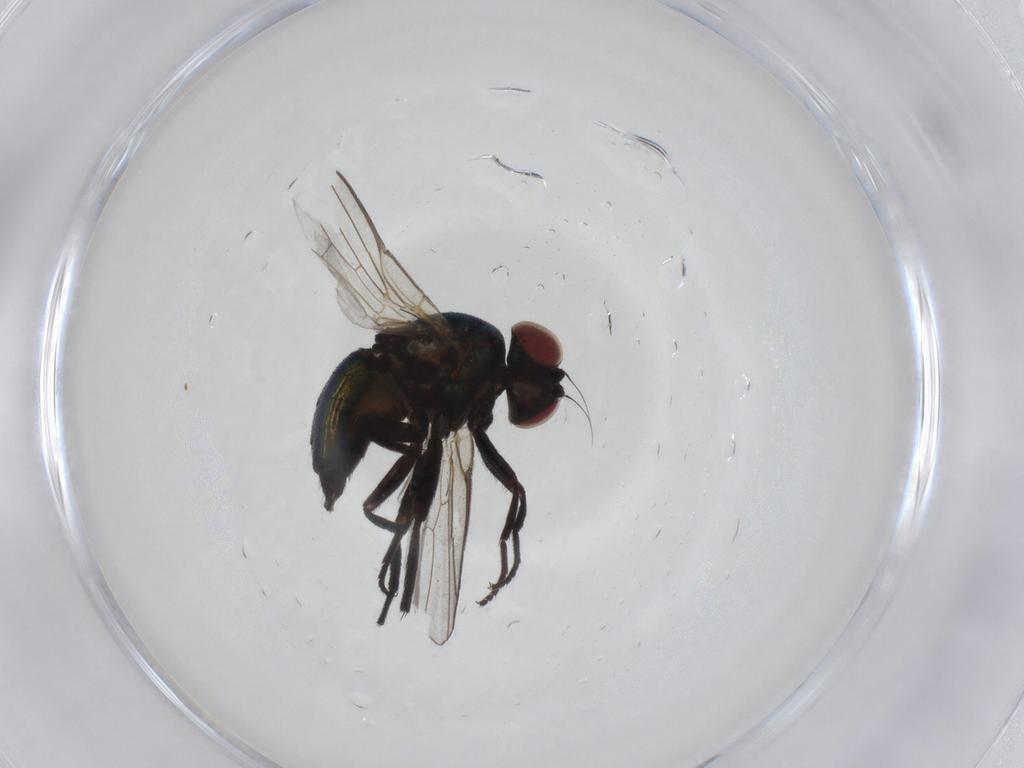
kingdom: Animalia
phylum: Arthropoda
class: Insecta
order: Diptera
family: Agromyzidae
